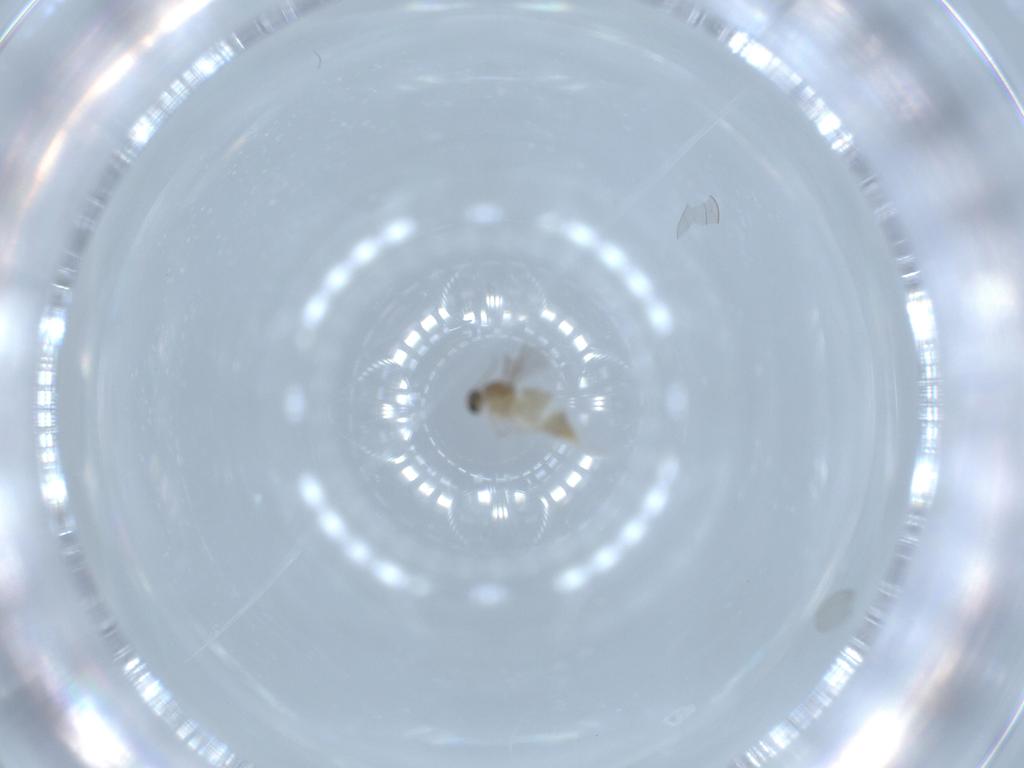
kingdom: Animalia
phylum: Arthropoda
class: Insecta
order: Diptera
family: Cecidomyiidae
